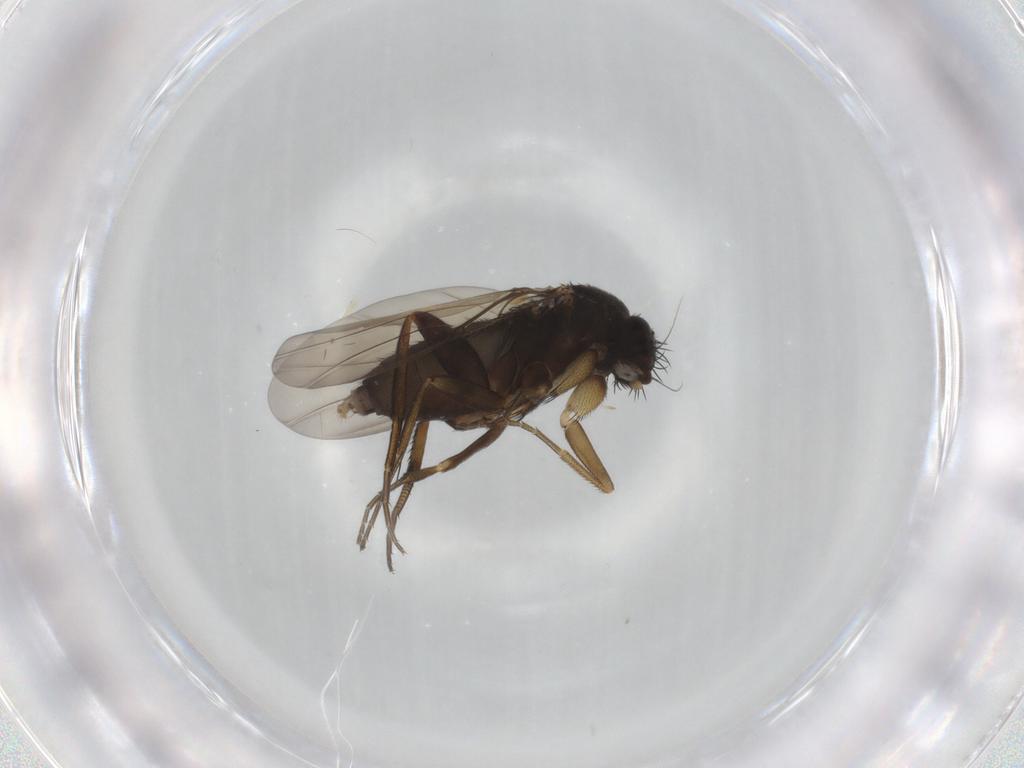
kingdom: Animalia
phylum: Arthropoda
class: Insecta
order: Diptera
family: Phoridae
